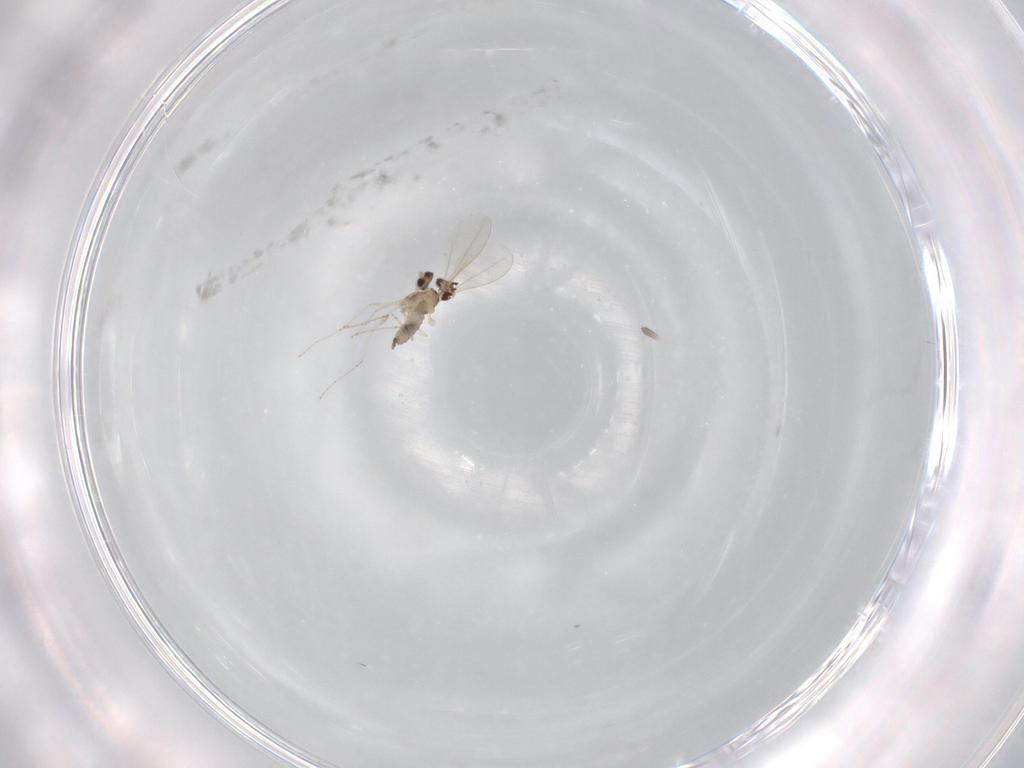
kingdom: Animalia
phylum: Arthropoda
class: Insecta
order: Diptera
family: Cecidomyiidae
